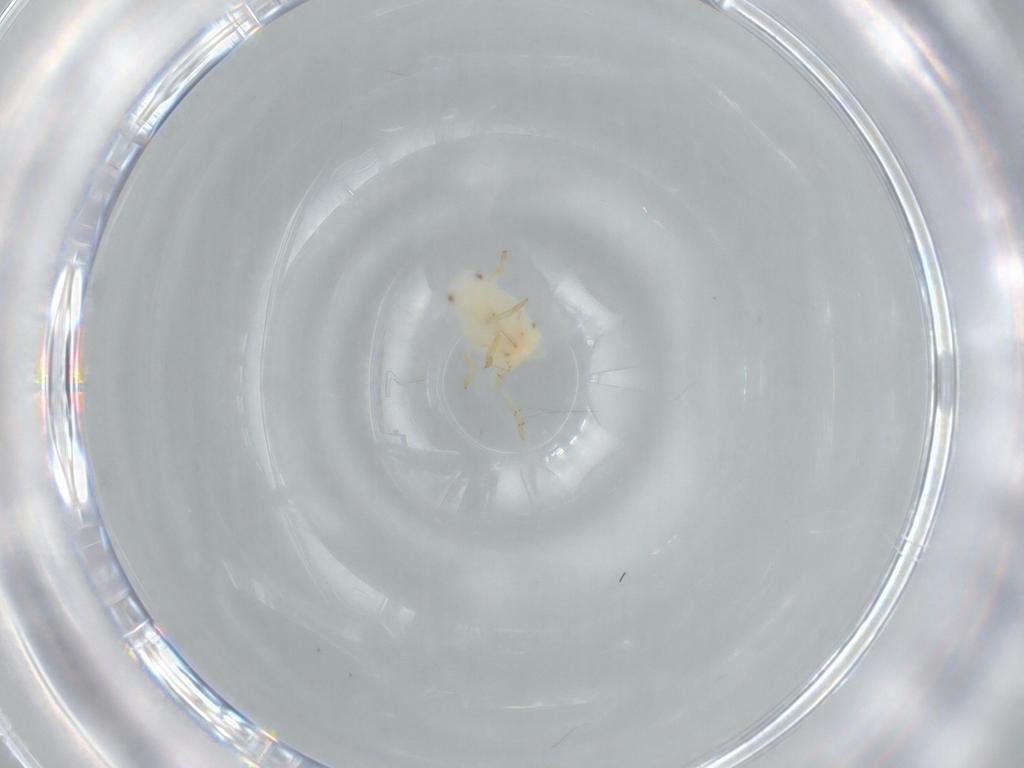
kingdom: Animalia
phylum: Arthropoda
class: Insecta
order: Hemiptera
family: Flatidae
